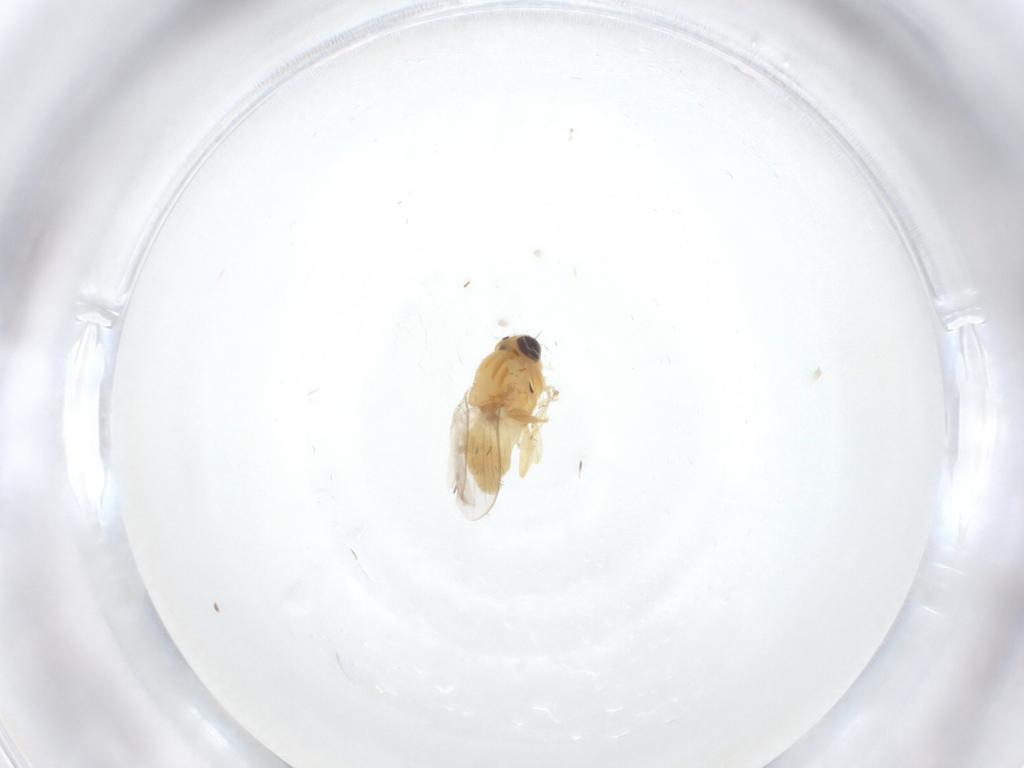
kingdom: Animalia
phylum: Arthropoda
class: Insecta
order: Diptera
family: Chloropidae
